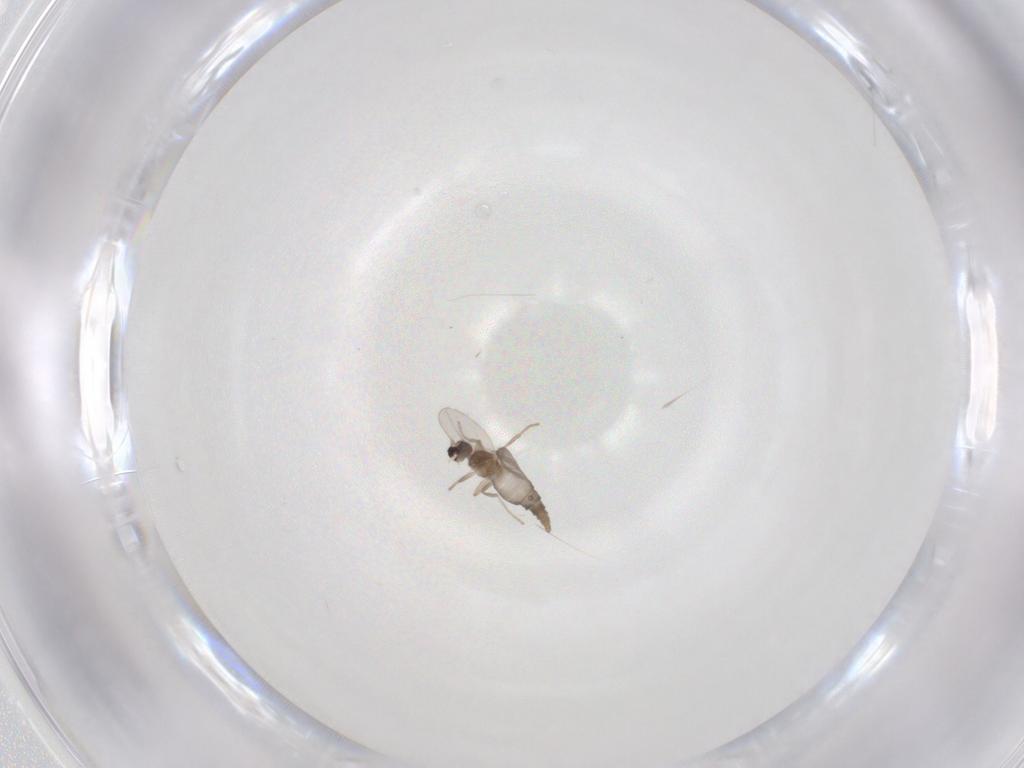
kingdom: Animalia
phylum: Arthropoda
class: Insecta
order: Diptera
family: Cecidomyiidae
